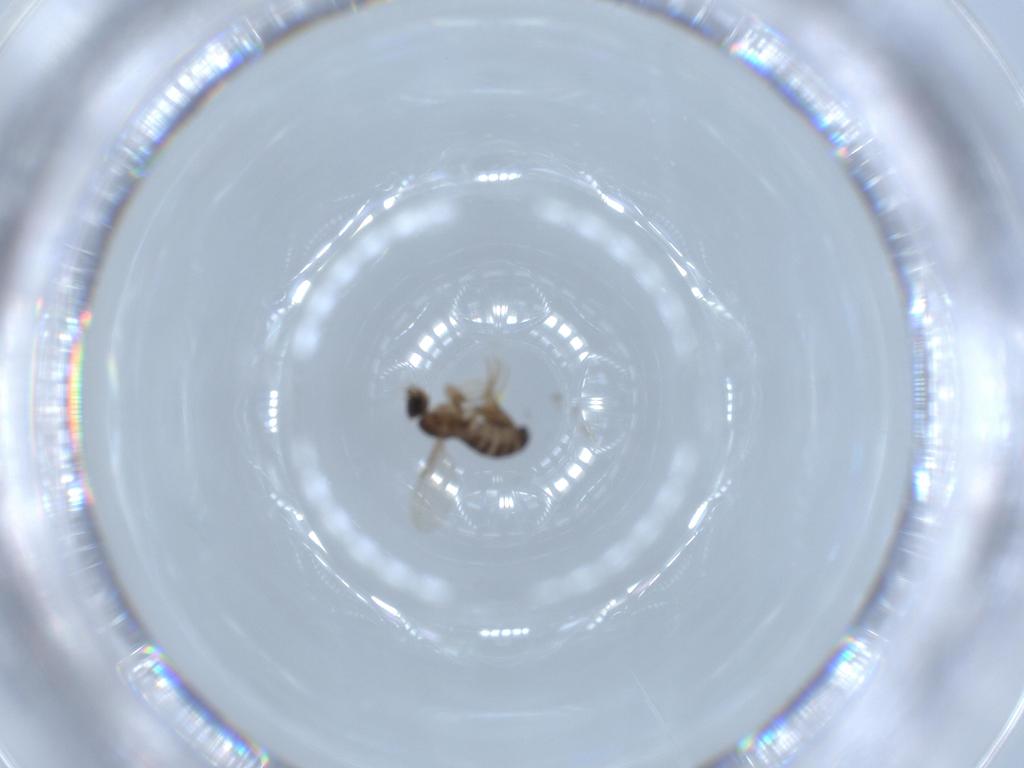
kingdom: Animalia
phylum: Arthropoda
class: Insecta
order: Diptera
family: Phoridae
